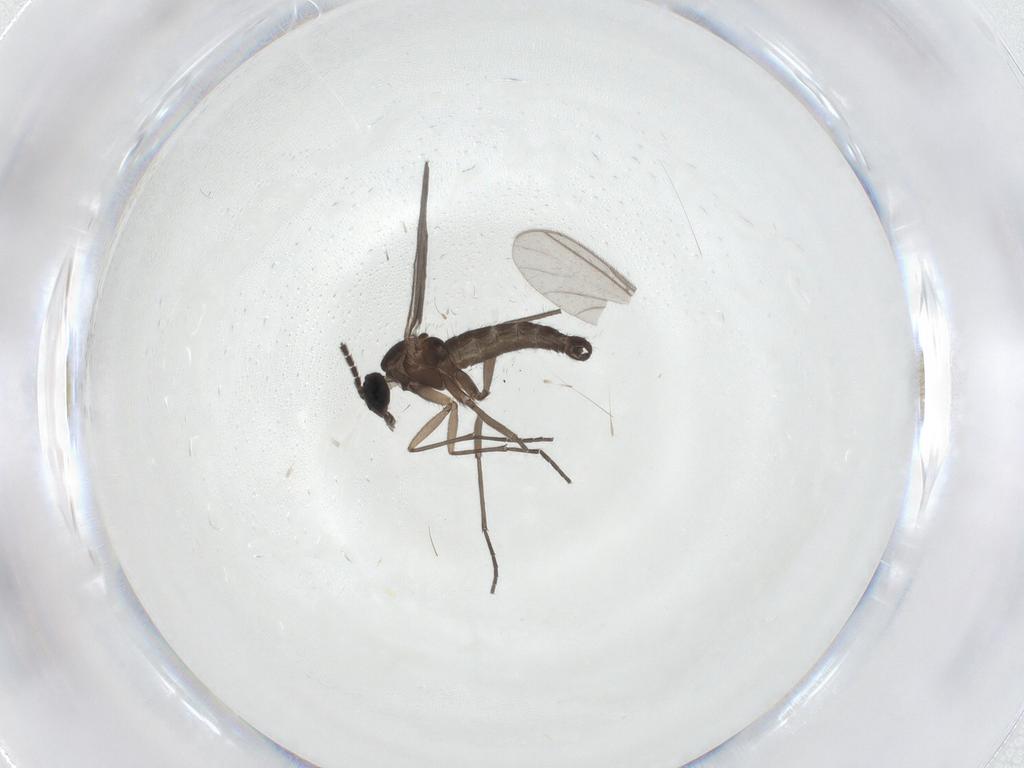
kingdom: Animalia
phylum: Arthropoda
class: Insecta
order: Diptera
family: Sciaridae
